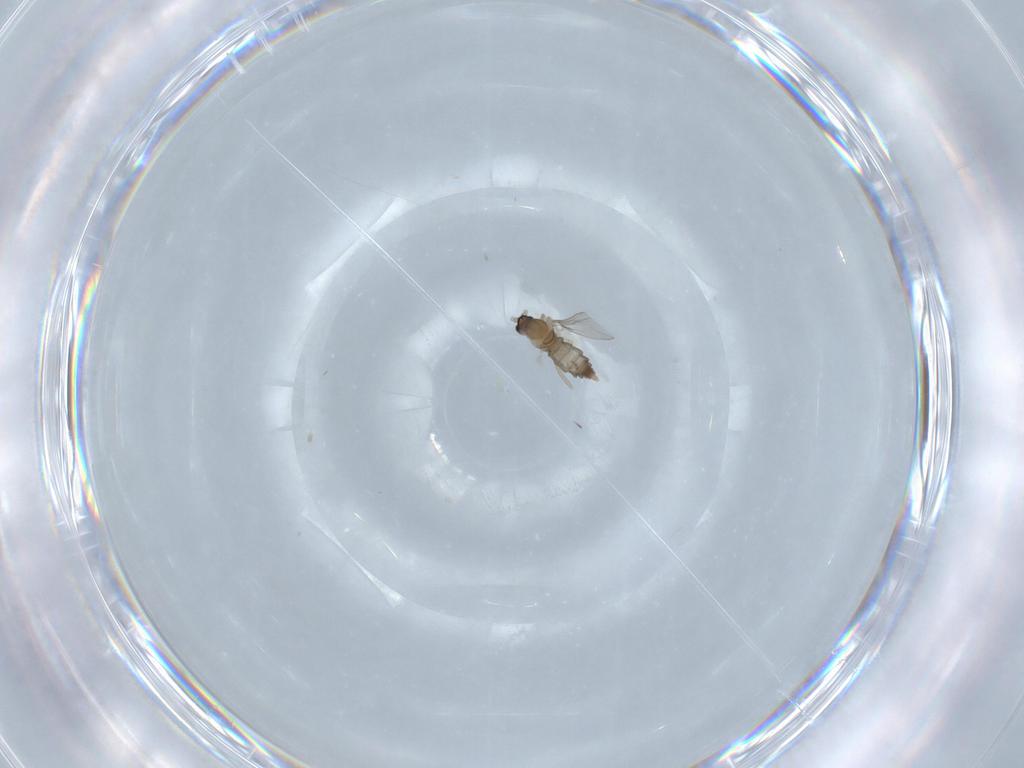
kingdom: Animalia
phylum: Arthropoda
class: Insecta
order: Diptera
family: Cecidomyiidae
